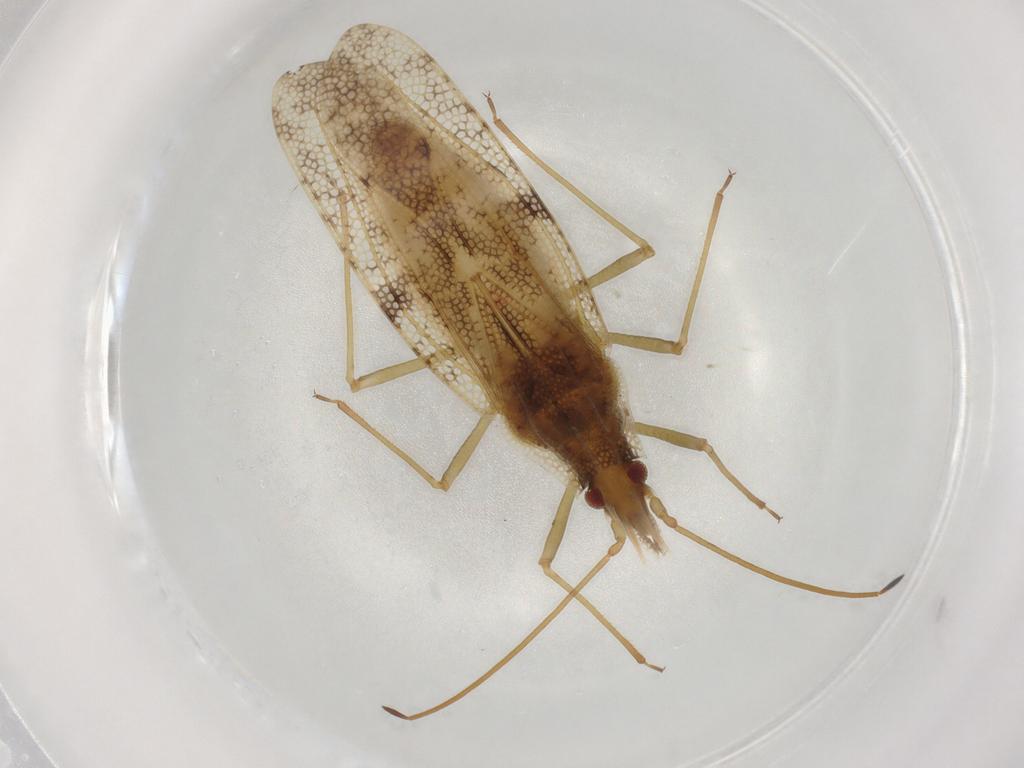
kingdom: Animalia
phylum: Arthropoda
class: Insecta
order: Hemiptera
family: Tingidae
